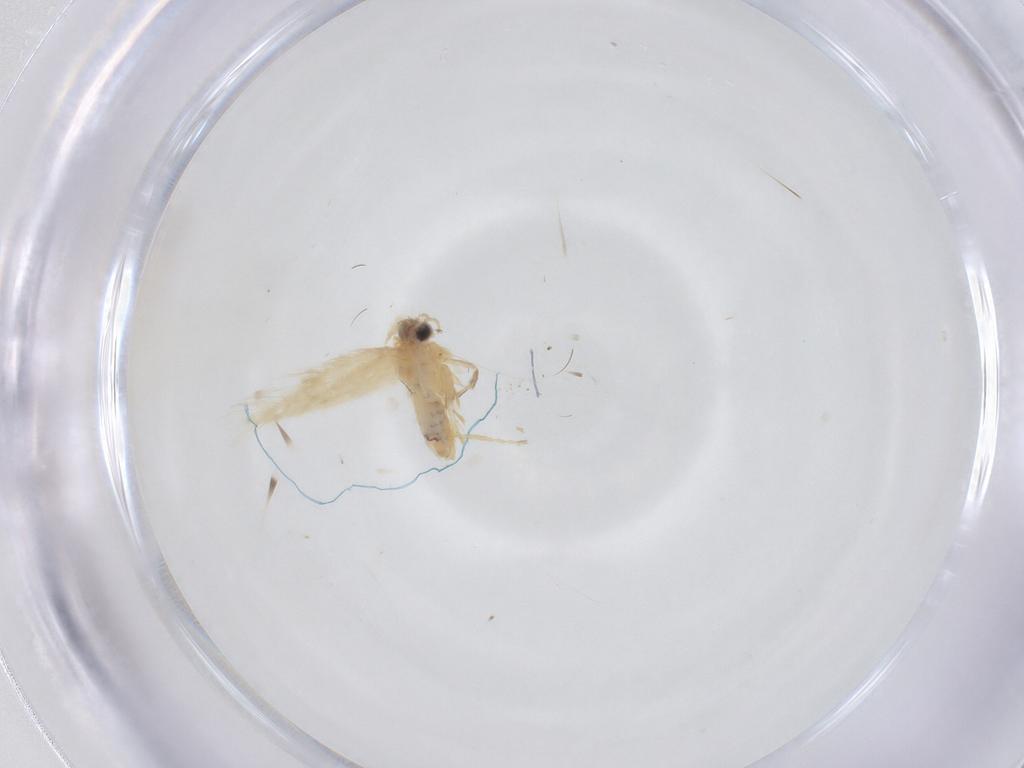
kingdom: Animalia
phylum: Arthropoda
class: Insecta
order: Lepidoptera
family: Nepticulidae
